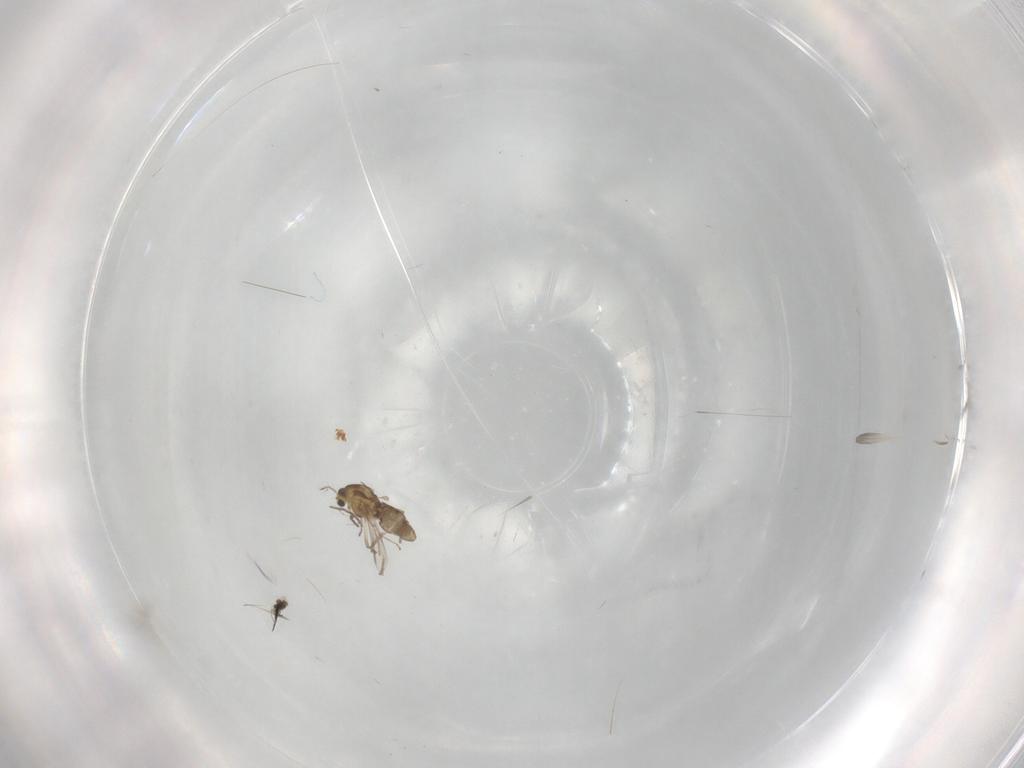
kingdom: Animalia
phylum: Arthropoda
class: Insecta
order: Diptera
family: Chironomidae
